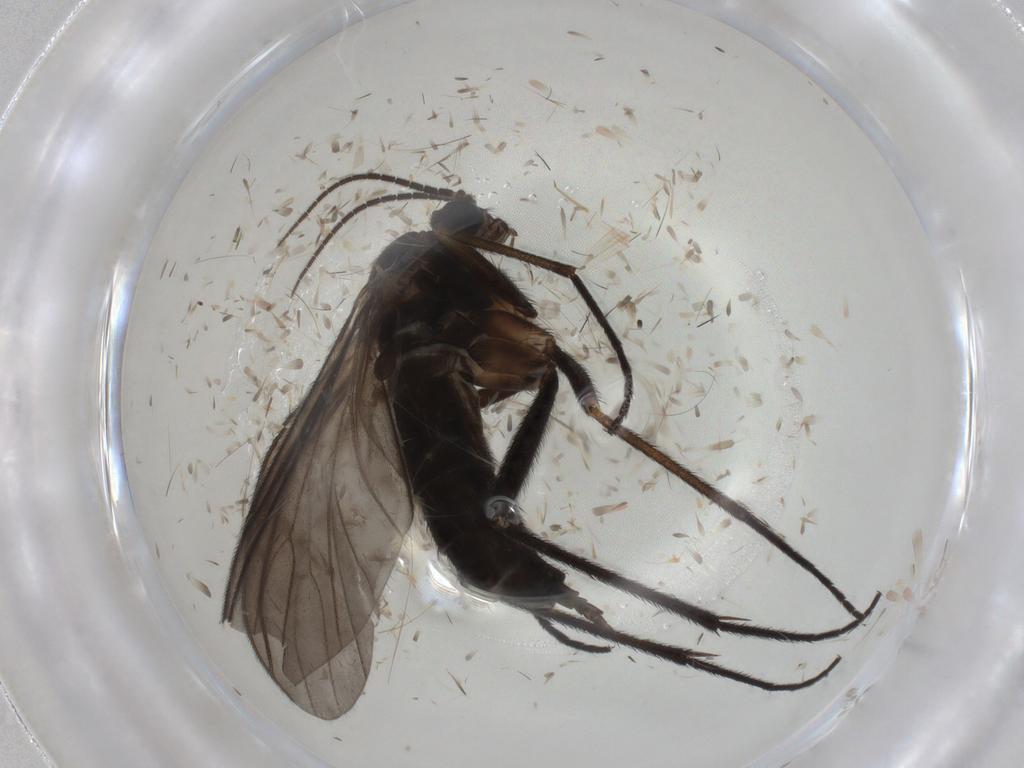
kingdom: Animalia
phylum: Arthropoda
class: Insecta
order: Diptera
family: Sciaridae
